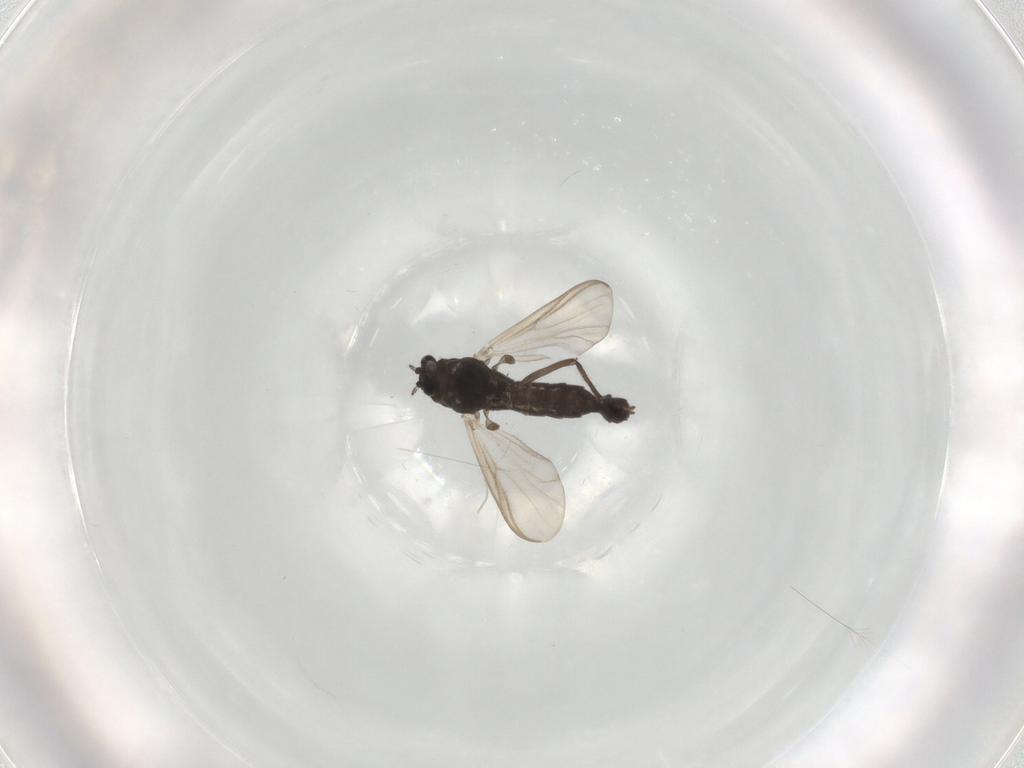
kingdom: Animalia
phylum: Arthropoda
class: Insecta
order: Diptera
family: Chironomidae
